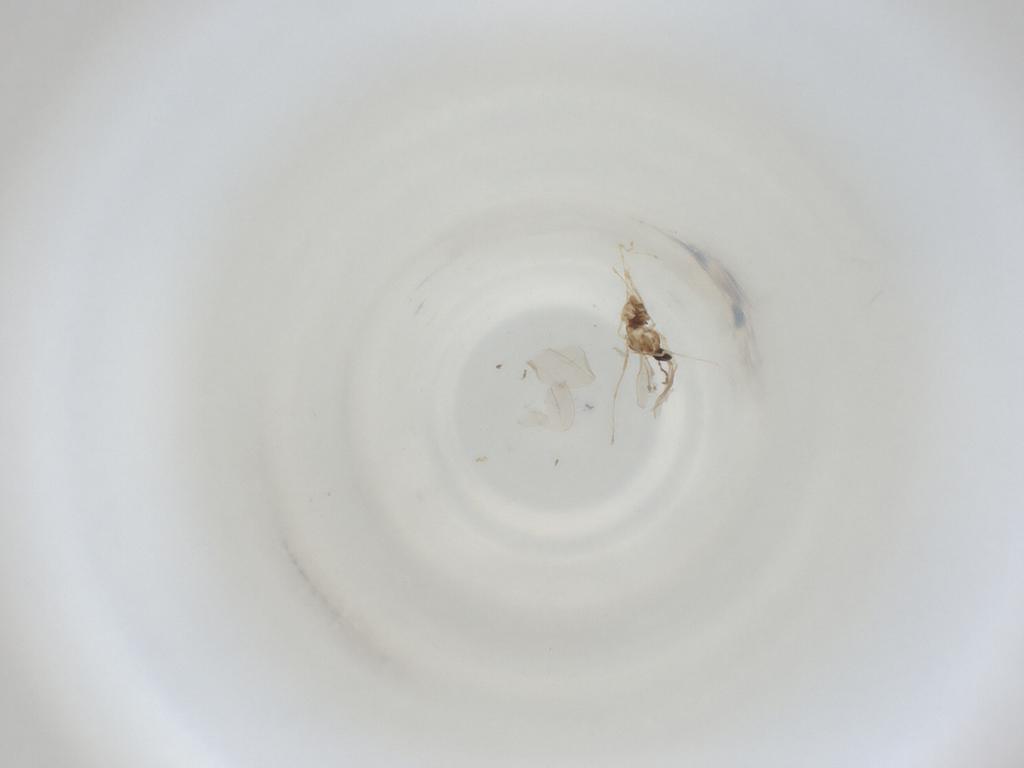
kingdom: Animalia
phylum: Arthropoda
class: Insecta
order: Diptera
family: Cecidomyiidae
